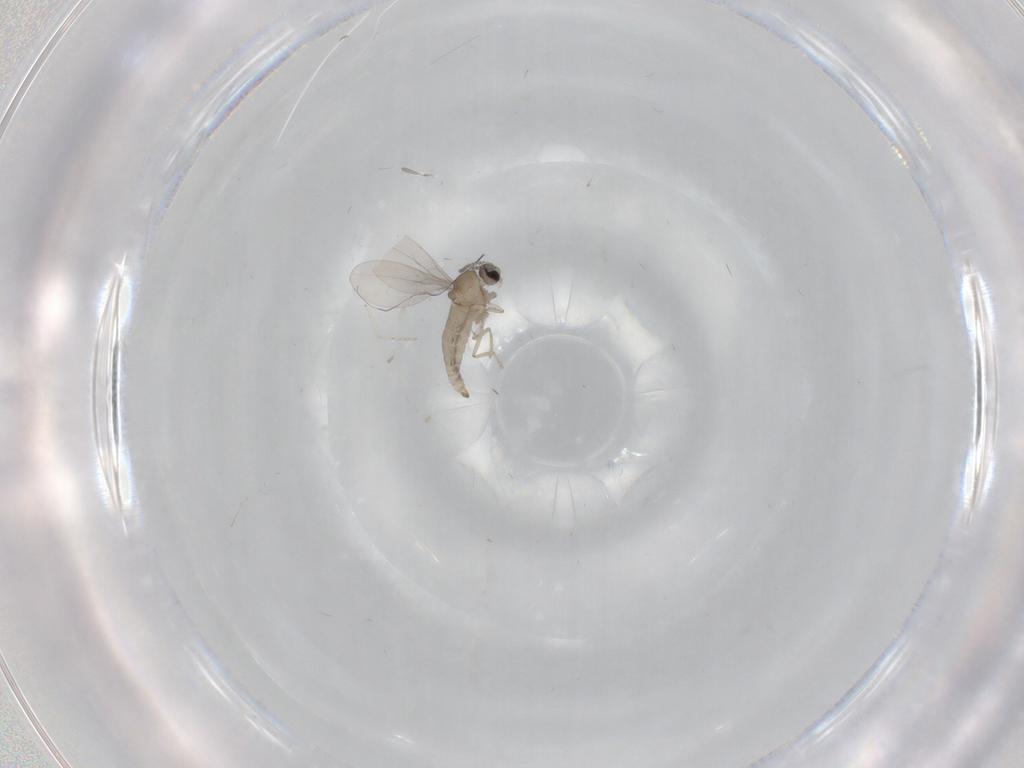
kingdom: Animalia
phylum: Arthropoda
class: Insecta
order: Diptera
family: Cecidomyiidae
